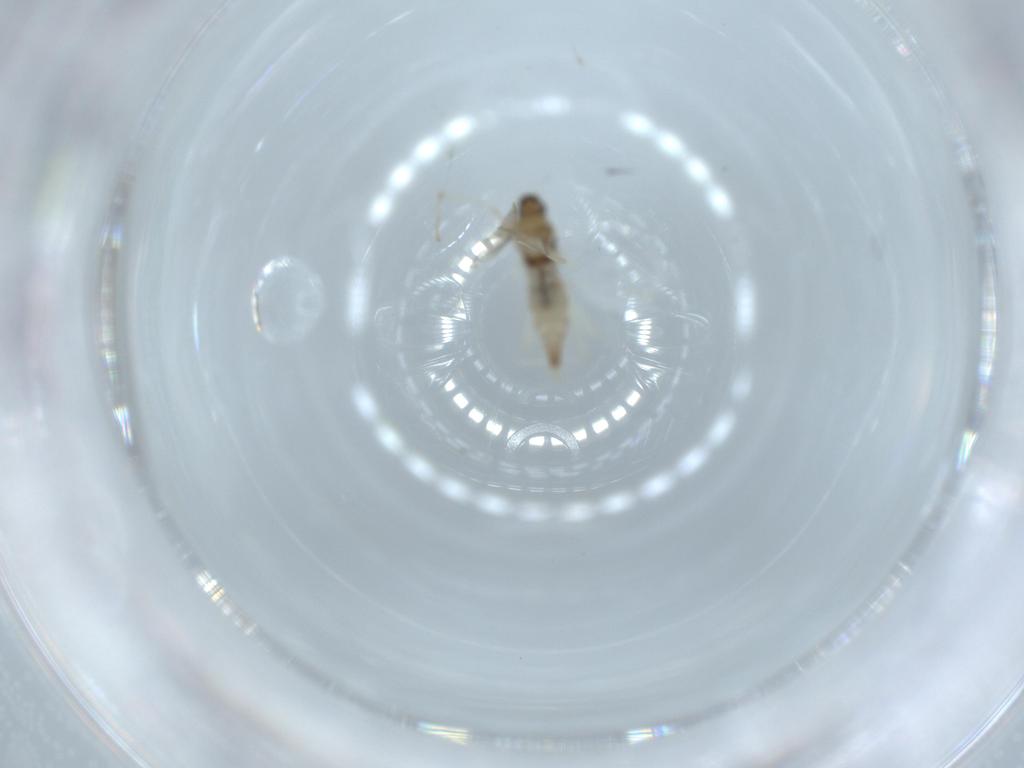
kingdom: Animalia
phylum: Arthropoda
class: Insecta
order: Diptera
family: Cecidomyiidae
